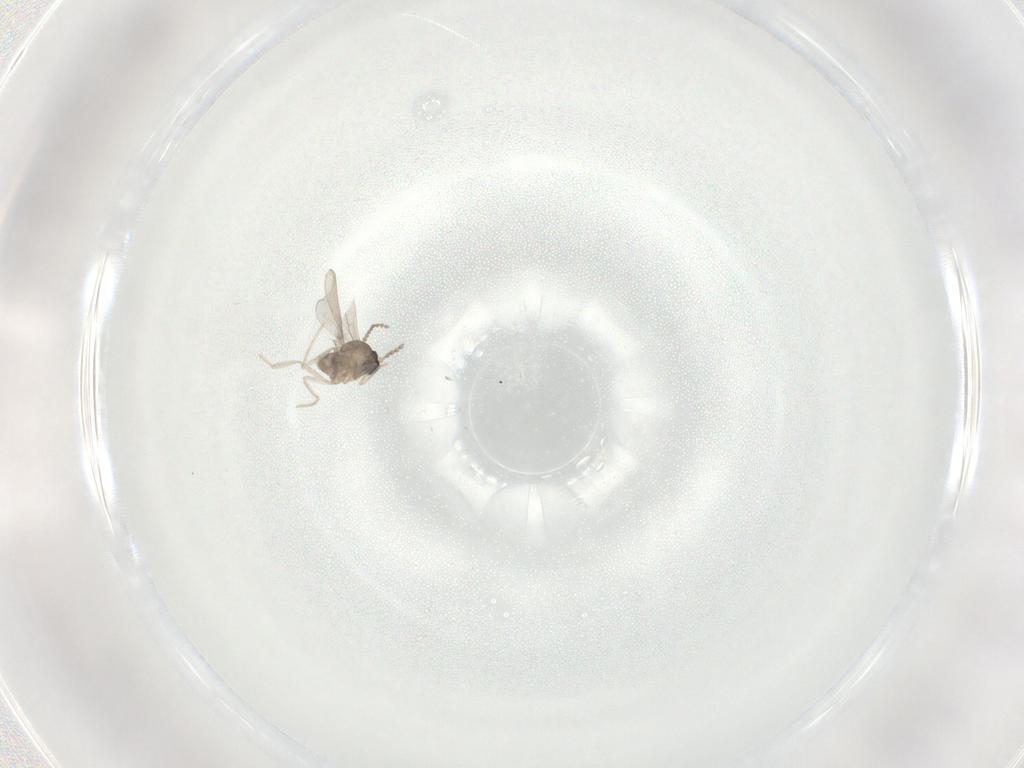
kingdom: Animalia
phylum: Arthropoda
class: Insecta
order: Diptera
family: Cecidomyiidae
